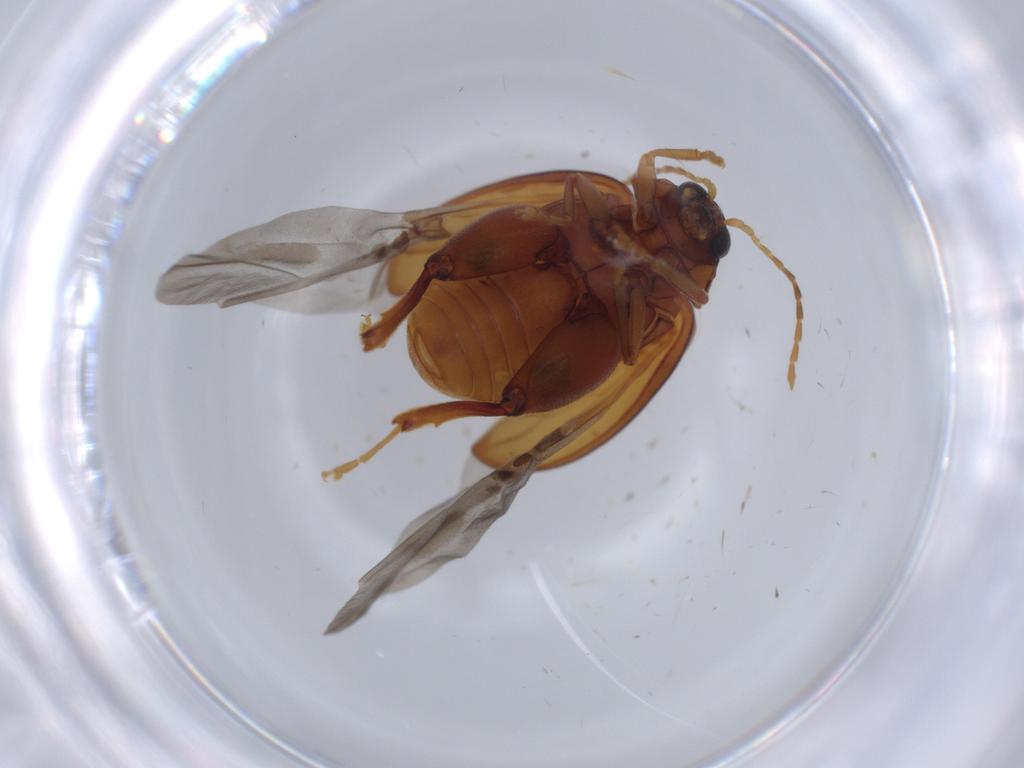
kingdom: Animalia
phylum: Arthropoda
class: Insecta
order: Coleoptera
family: Chrysomelidae
